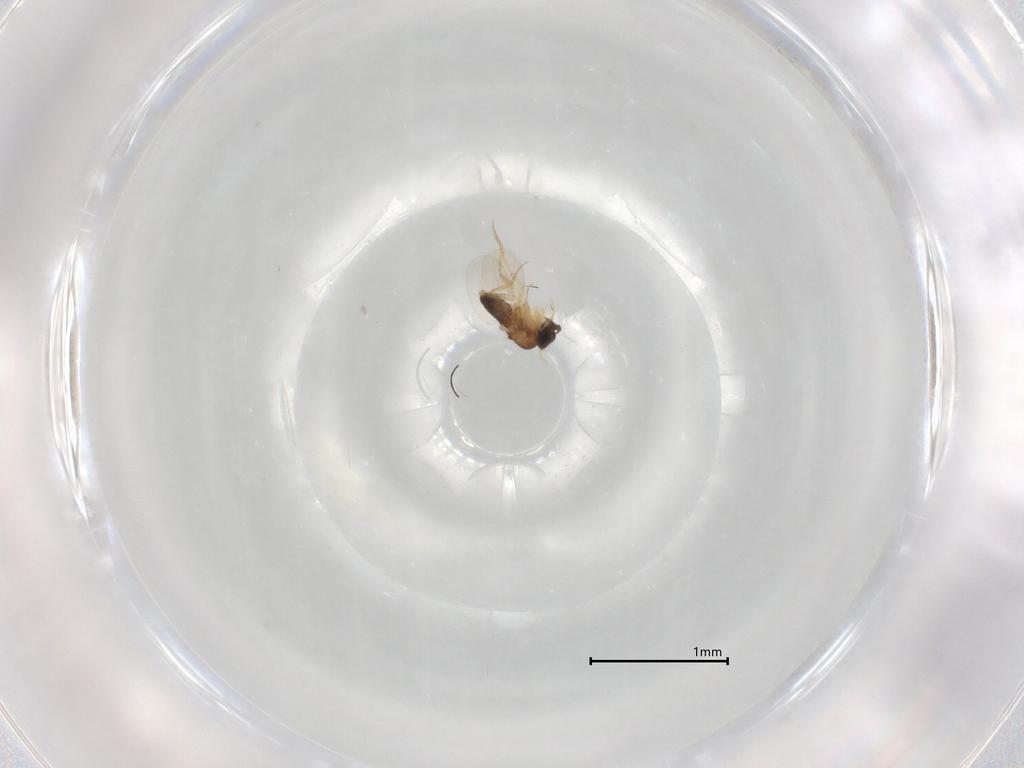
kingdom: Animalia
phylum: Arthropoda
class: Insecta
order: Diptera
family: Phoridae
